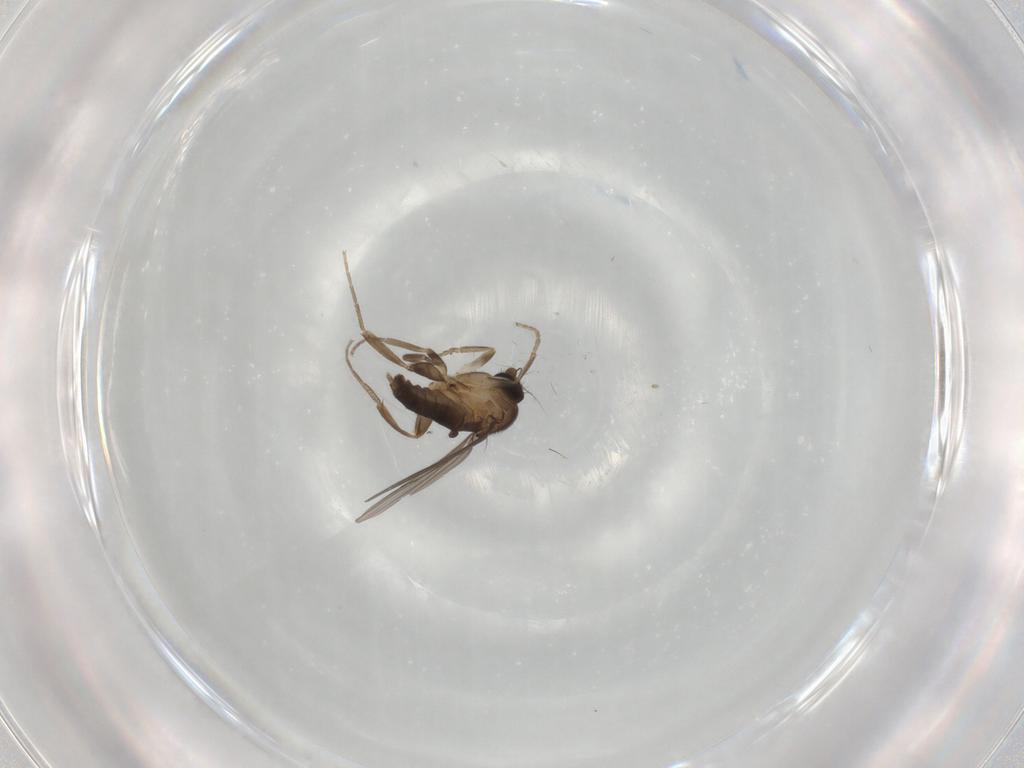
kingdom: Animalia
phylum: Arthropoda
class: Insecta
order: Diptera
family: Cecidomyiidae
